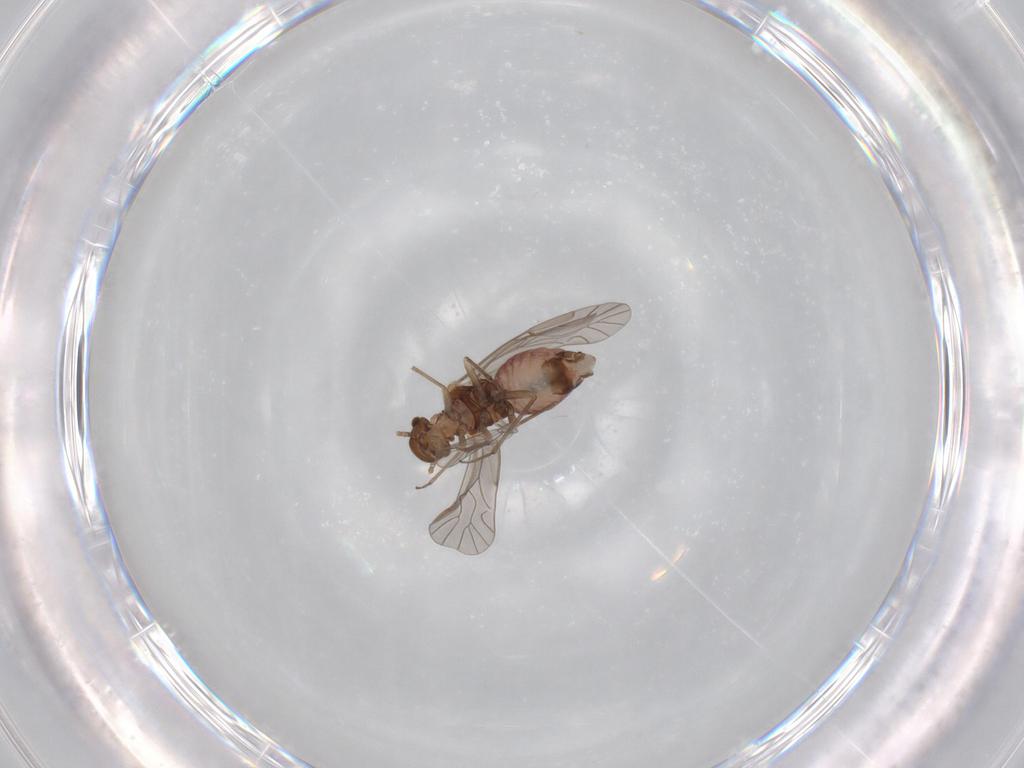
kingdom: Animalia
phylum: Arthropoda
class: Insecta
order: Psocodea
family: Lachesillidae
